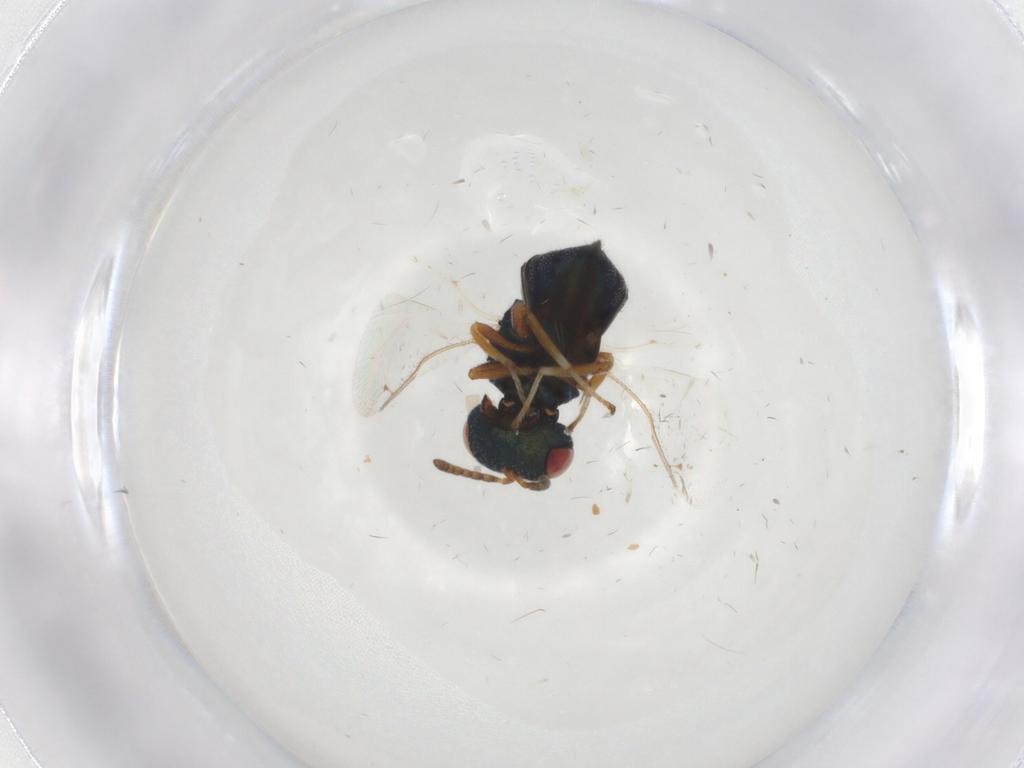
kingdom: Animalia
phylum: Arthropoda
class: Insecta
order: Hymenoptera
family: Pteromalidae
